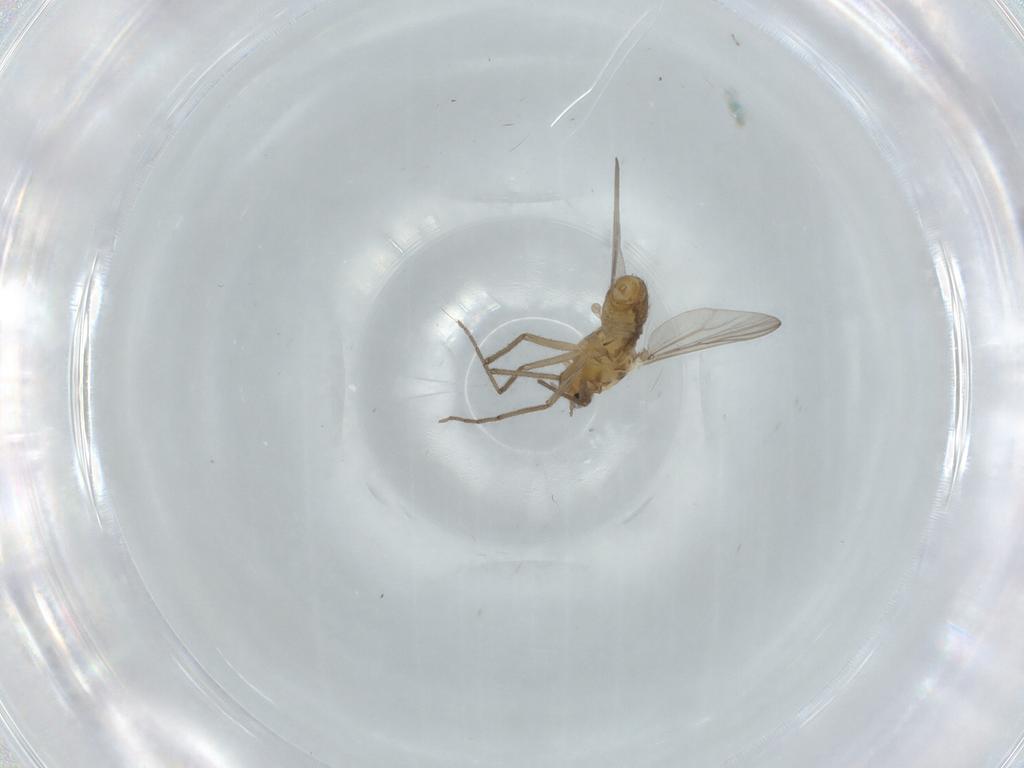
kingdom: Animalia
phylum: Arthropoda
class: Insecta
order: Diptera
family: Chironomidae
